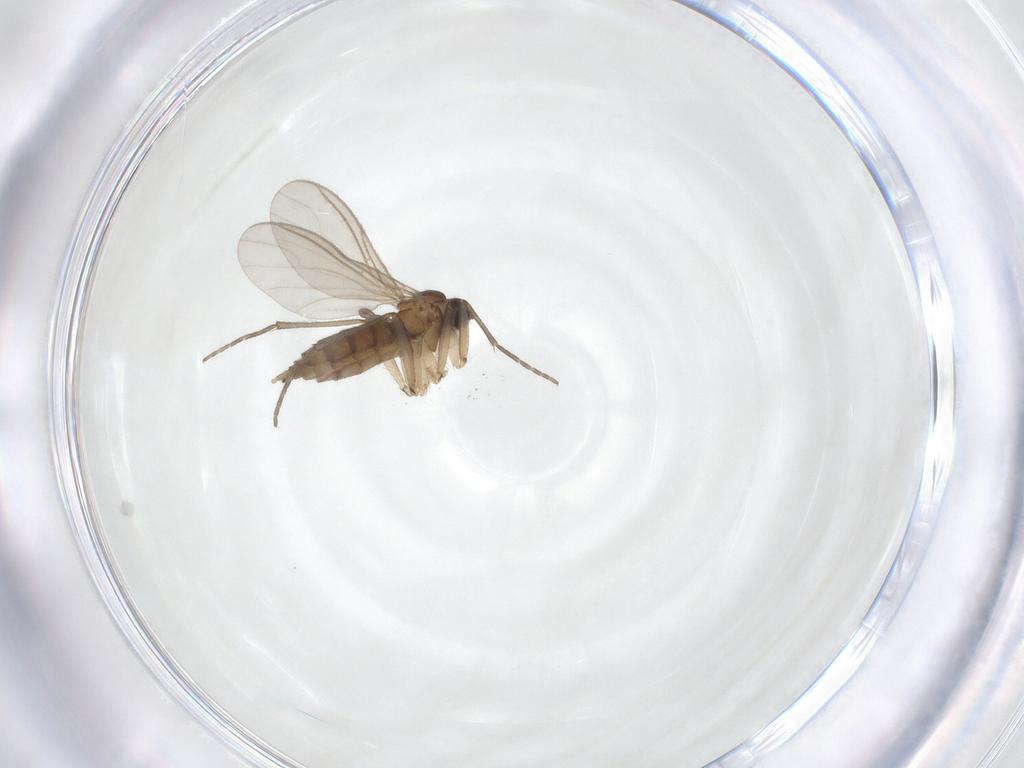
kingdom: Animalia
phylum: Arthropoda
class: Insecta
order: Diptera
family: Sciaridae
